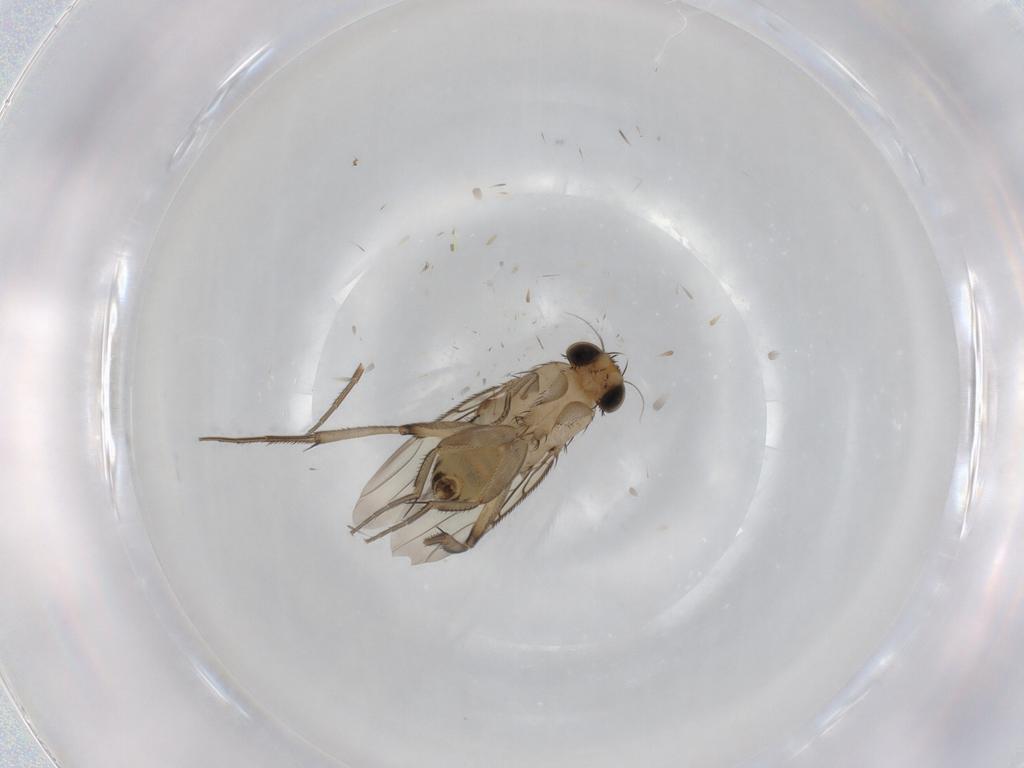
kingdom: Animalia
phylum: Arthropoda
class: Insecta
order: Diptera
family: Phoridae
